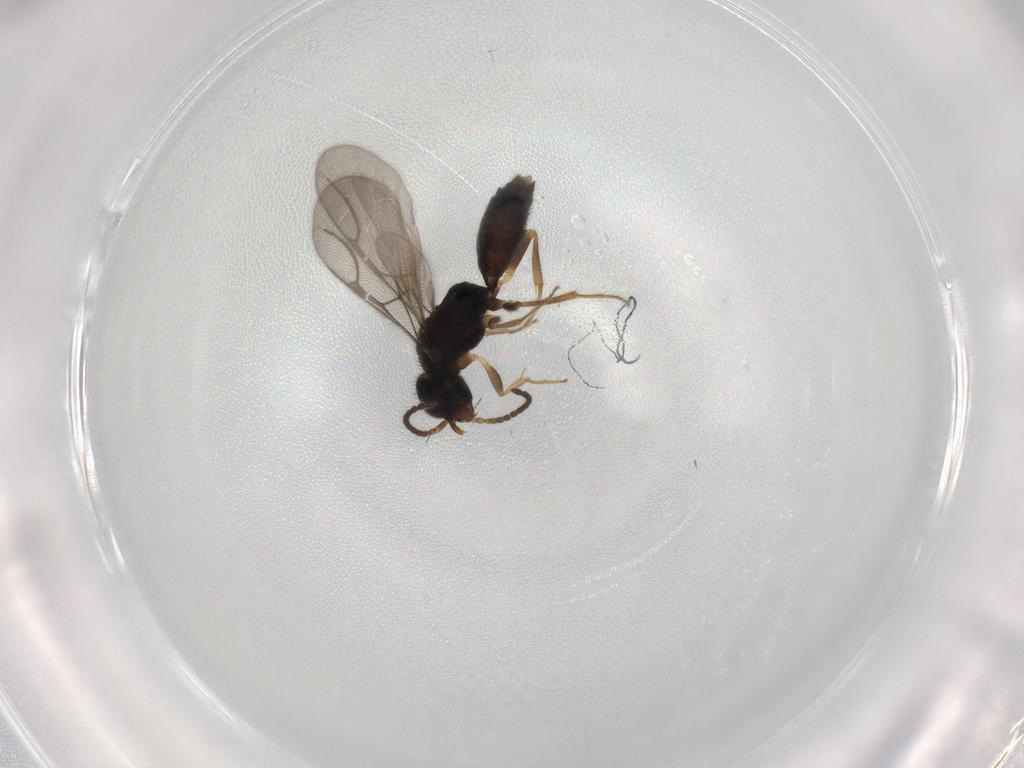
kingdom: Animalia
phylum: Arthropoda
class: Insecta
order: Hymenoptera
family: Bethylidae
